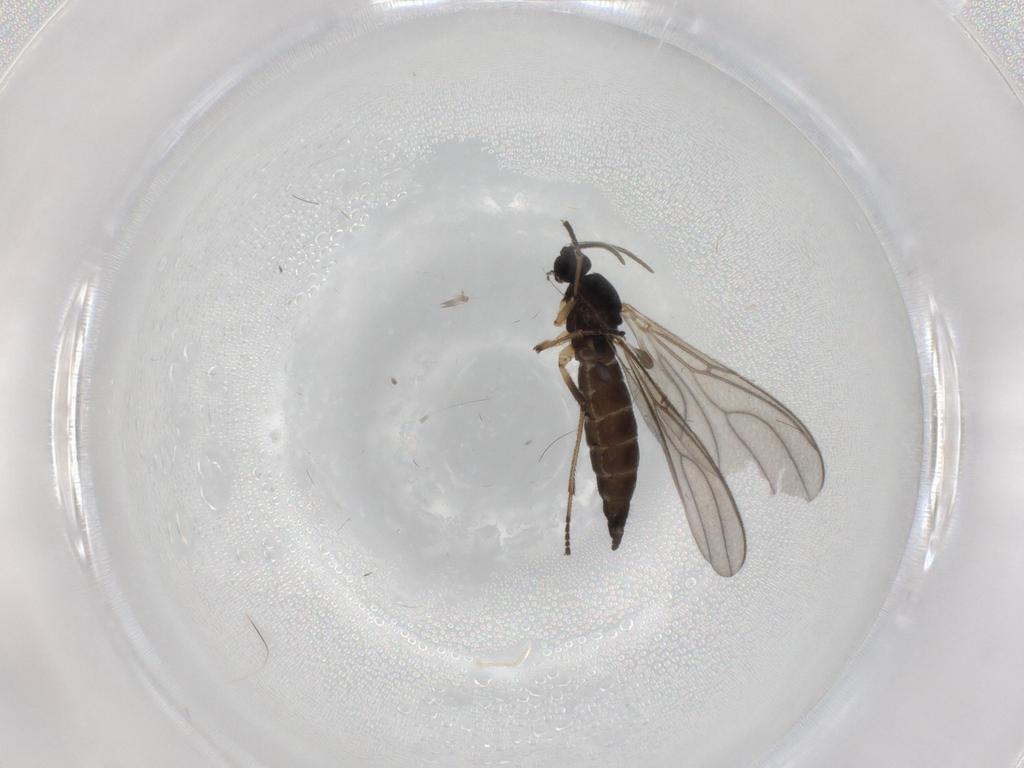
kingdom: Animalia
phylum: Arthropoda
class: Insecta
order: Diptera
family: Sciaridae
